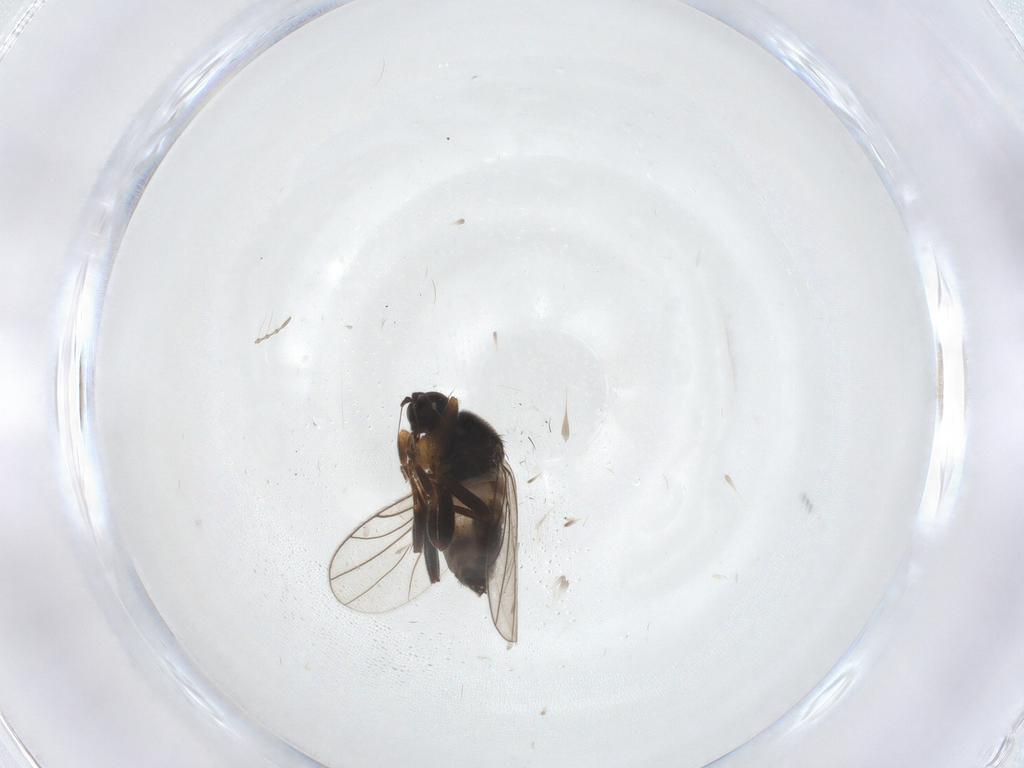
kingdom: Animalia
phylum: Arthropoda
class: Insecta
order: Diptera
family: Hybotidae
